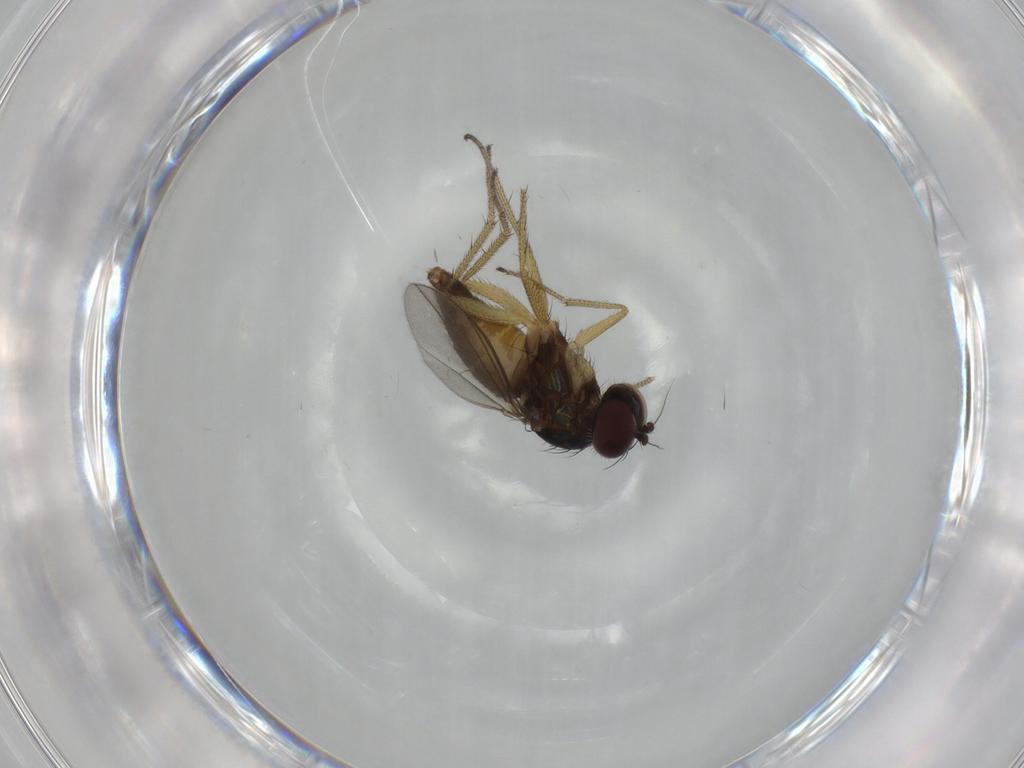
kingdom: Animalia
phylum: Arthropoda
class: Insecta
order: Diptera
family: Dolichopodidae
